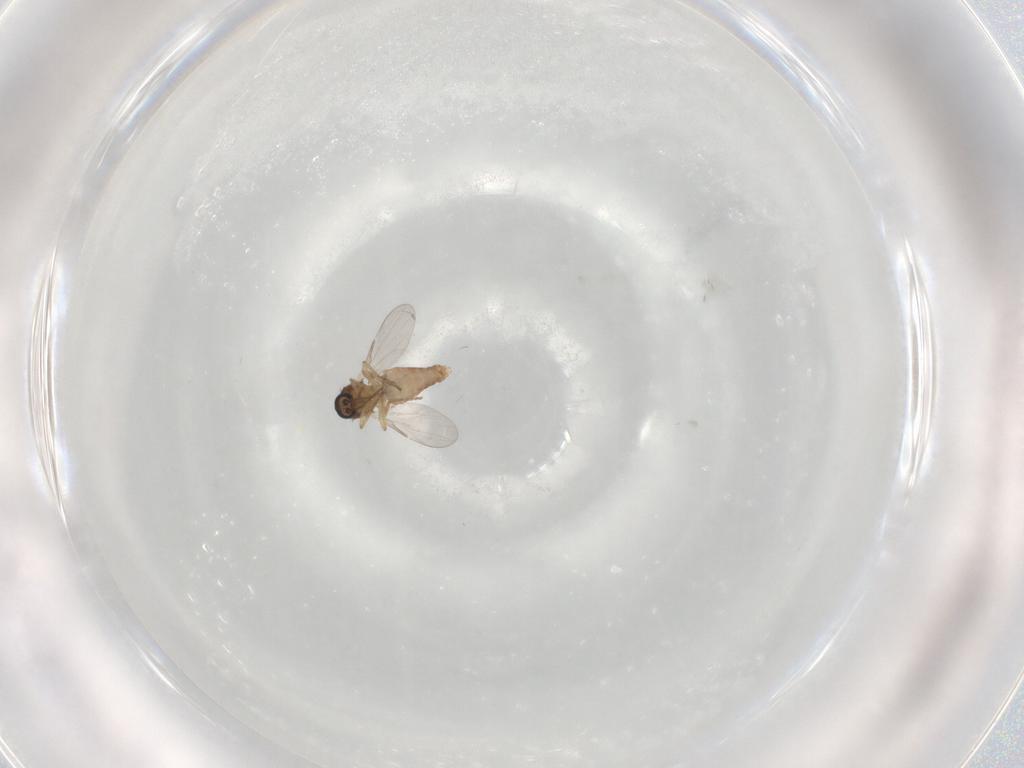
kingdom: Animalia
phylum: Arthropoda
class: Insecta
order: Diptera
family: Ceratopogonidae
